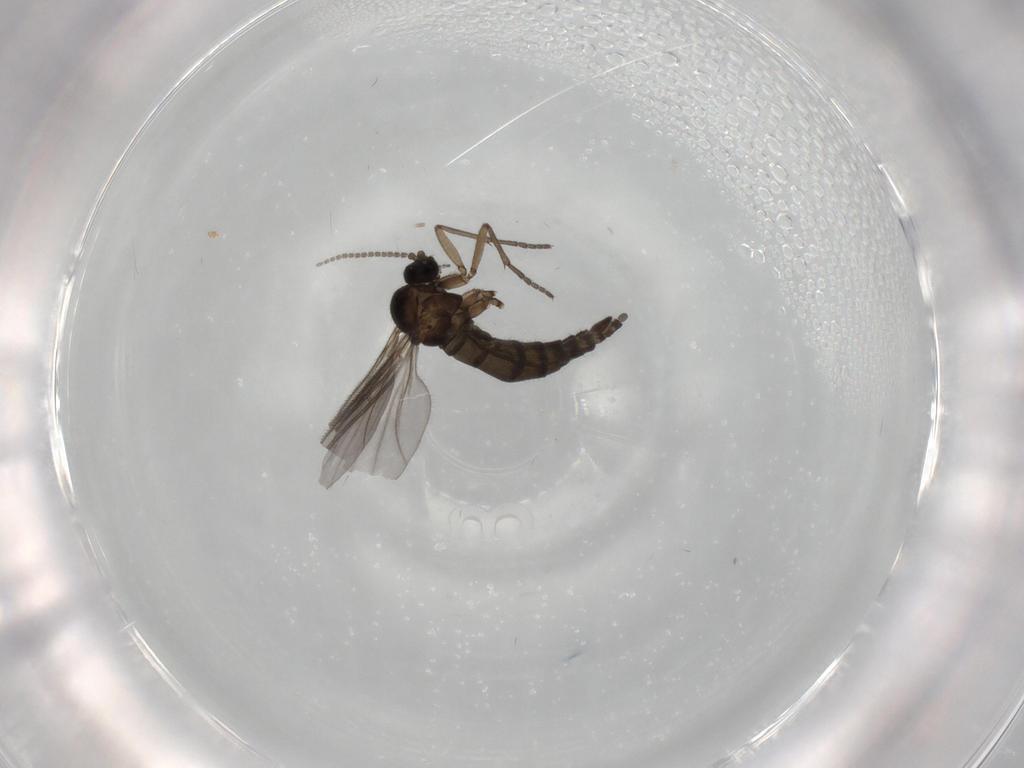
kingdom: Animalia
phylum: Arthropoda
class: Insecta
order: Diptera
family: Sciaridae
